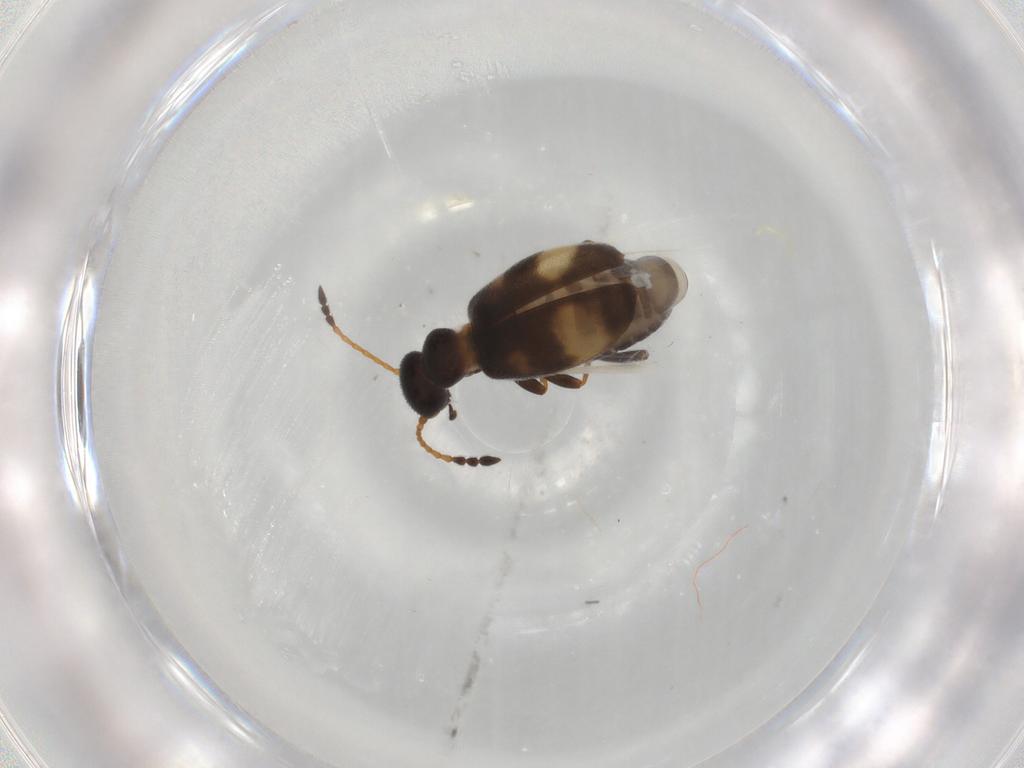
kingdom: Animalia
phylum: Arthropoda
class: Insecta
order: Coleoptera
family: Anthicidae
